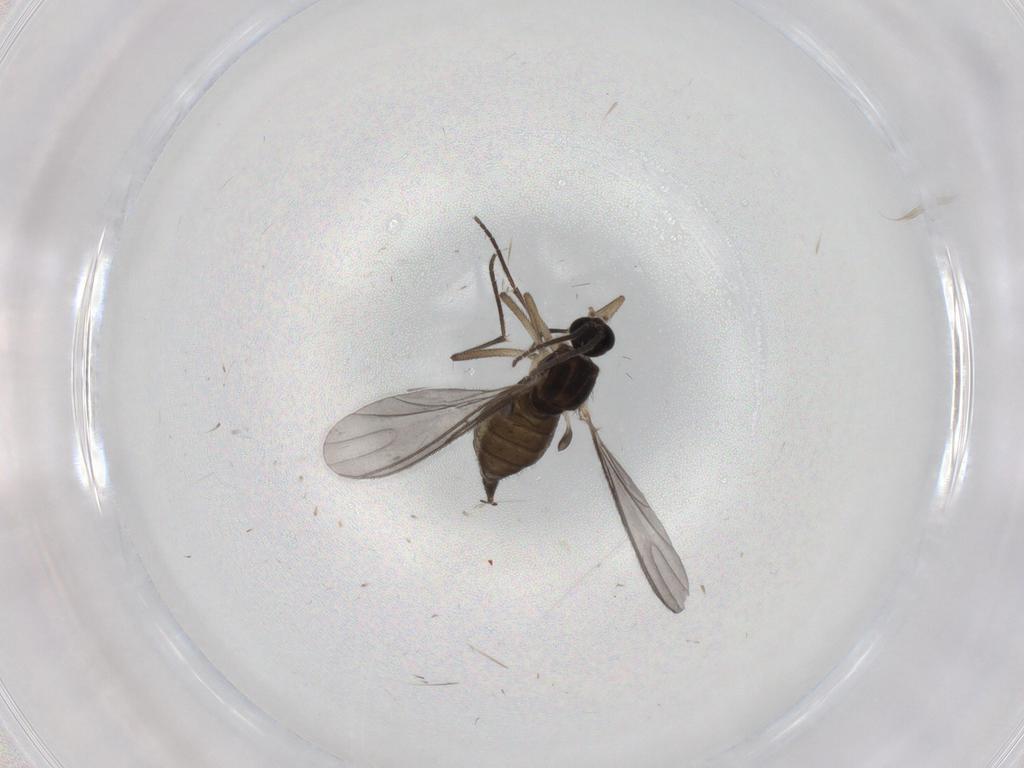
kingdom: Animalia
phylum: Arthropoda
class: Insecta
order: Diptera
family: Sciaridae
